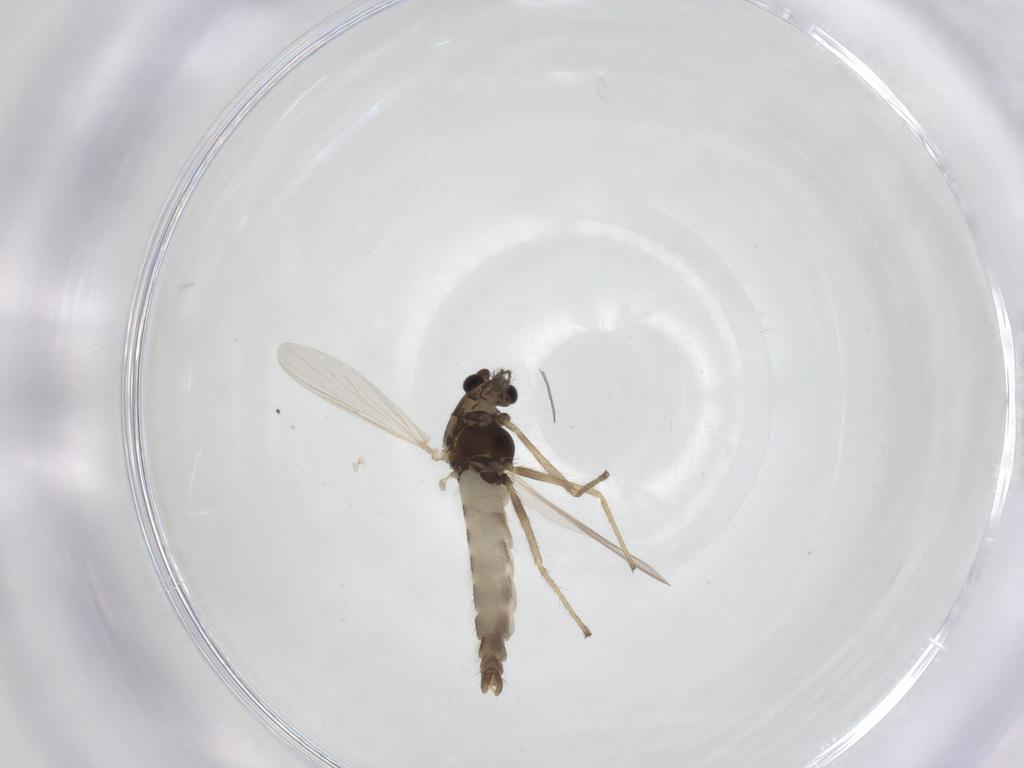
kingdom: Animalia
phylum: Arthropoda
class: Insecta
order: Diptera
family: Chironomidae
